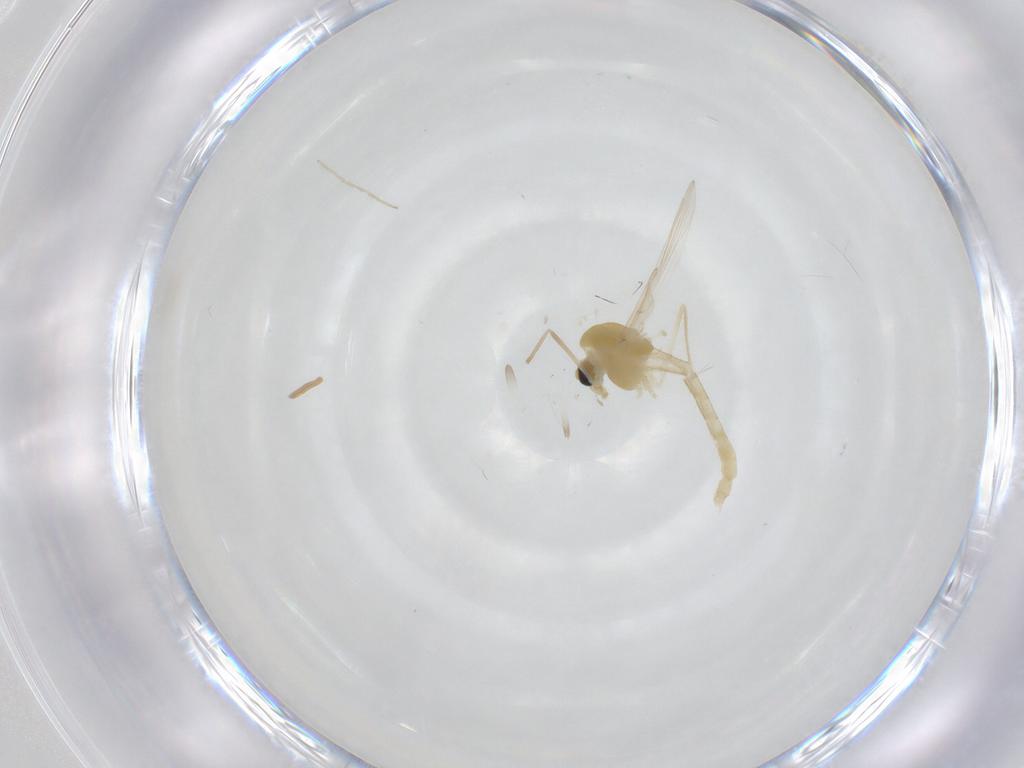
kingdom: Animalia
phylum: Arthropoda
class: Insecta
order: Diptera
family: Chironomidae
